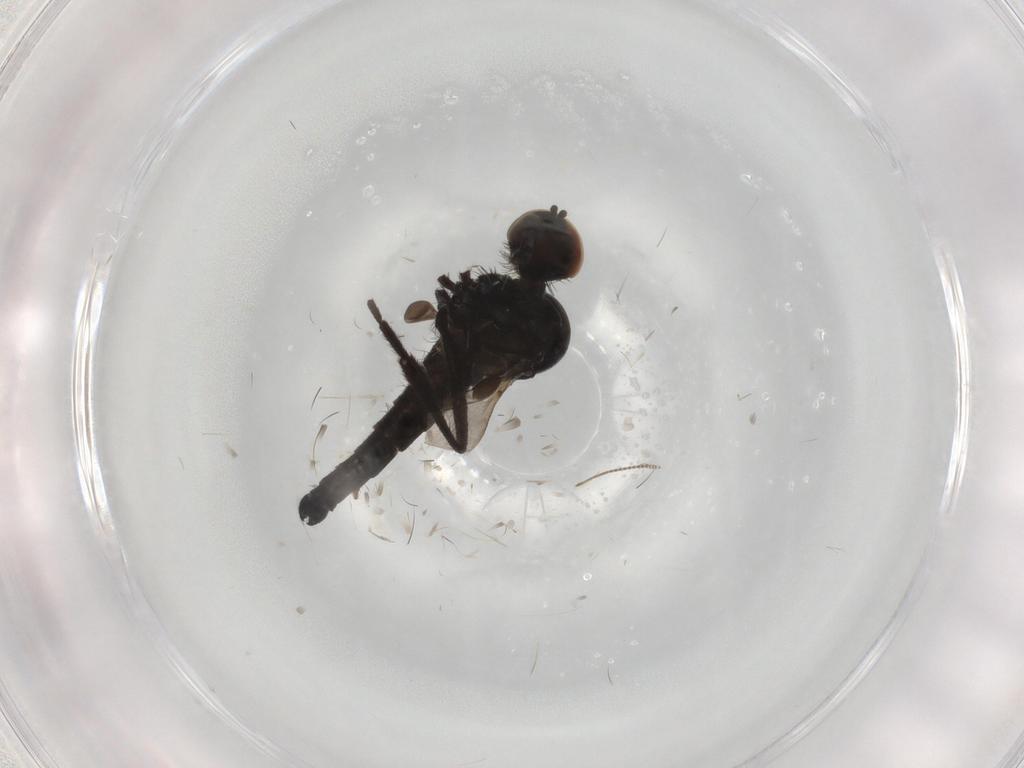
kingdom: Animalia
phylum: Arthropoda
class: Insecta
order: Diptera
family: Hybotidae
